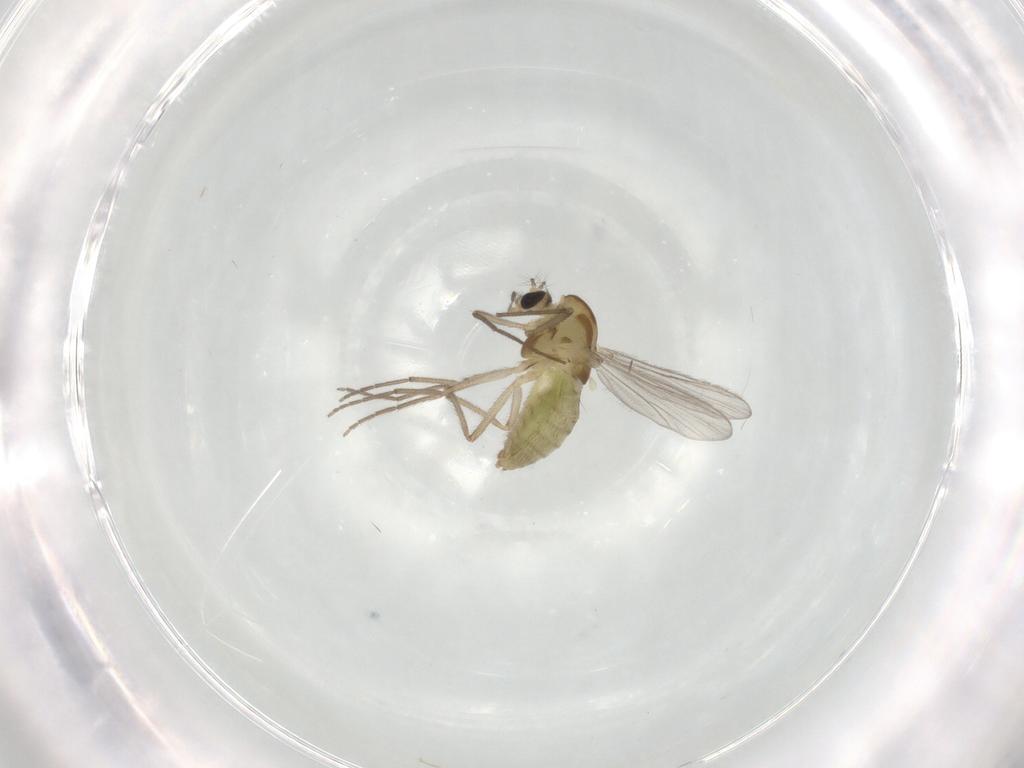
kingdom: Animalia
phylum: Arthropoda
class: Insecta
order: Diptera
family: Chironomidae
